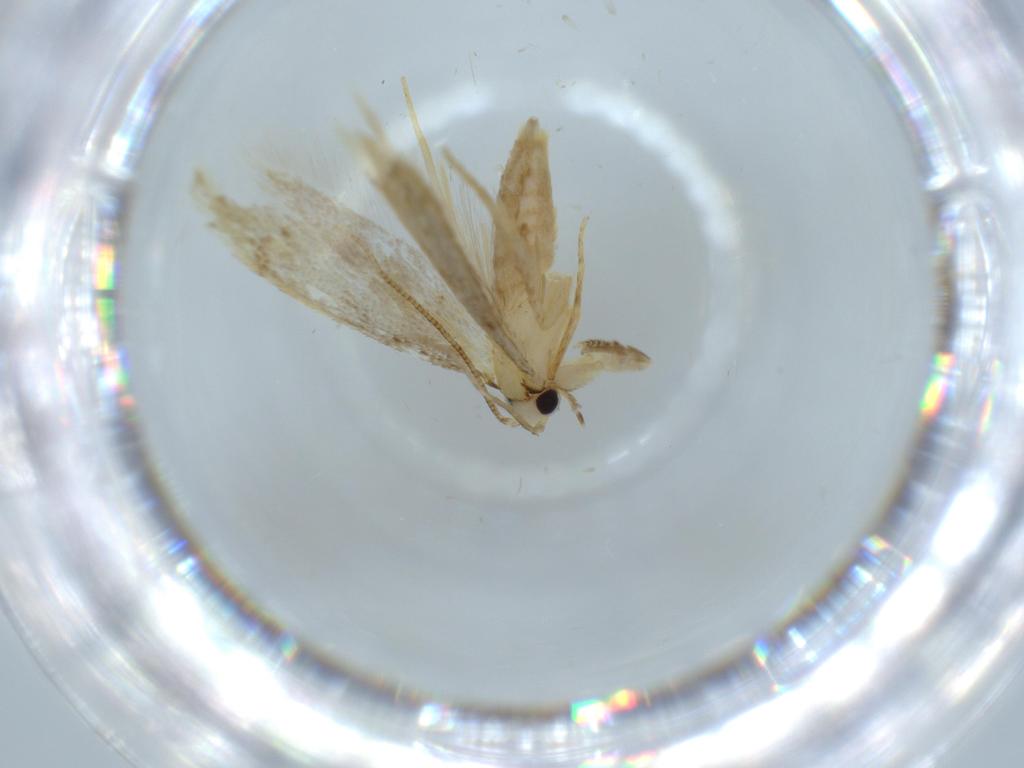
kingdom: Animalia
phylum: Arthropoda
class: Insecta
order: Lepidoptera
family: Tineidae
